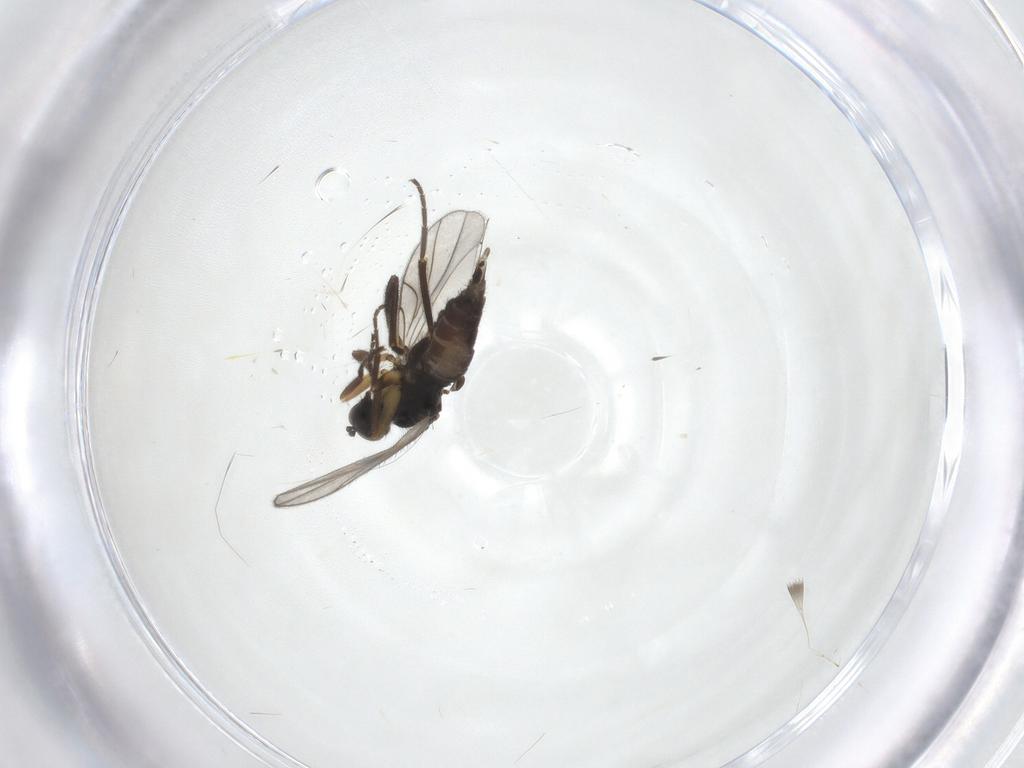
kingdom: Animalia
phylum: Arthropoda
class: Insecta
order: Diptera
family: Hybotidae
